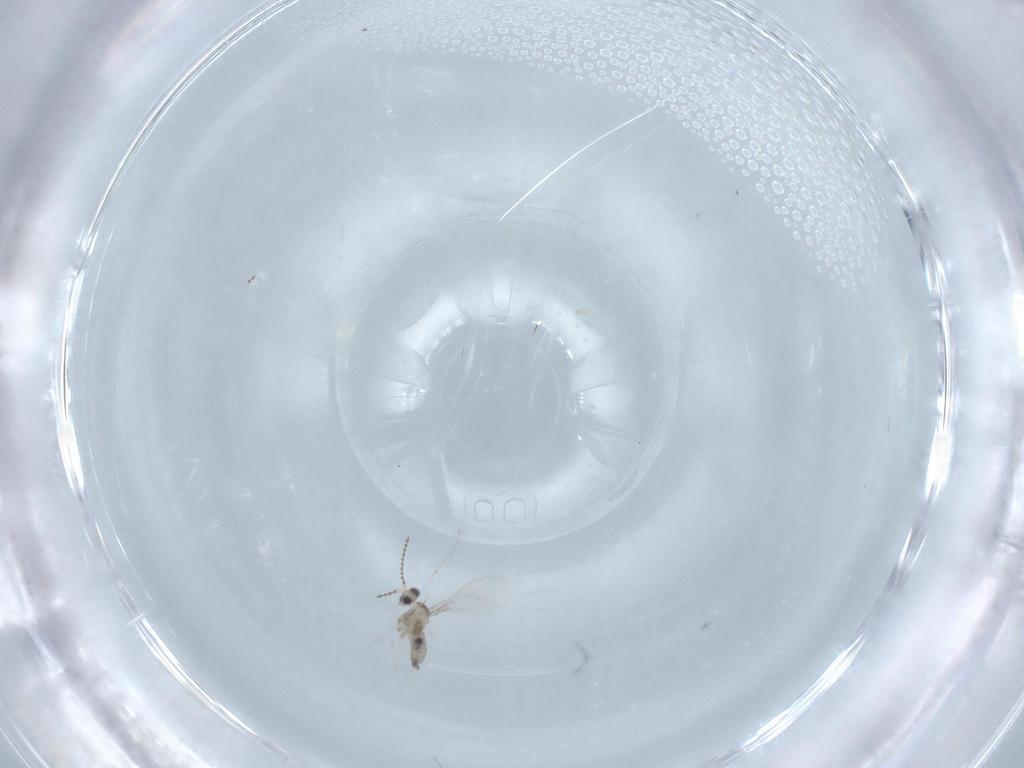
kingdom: Animalia
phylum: Arthropoda
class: Insecta
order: Diptera
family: Cecidomyiidae
